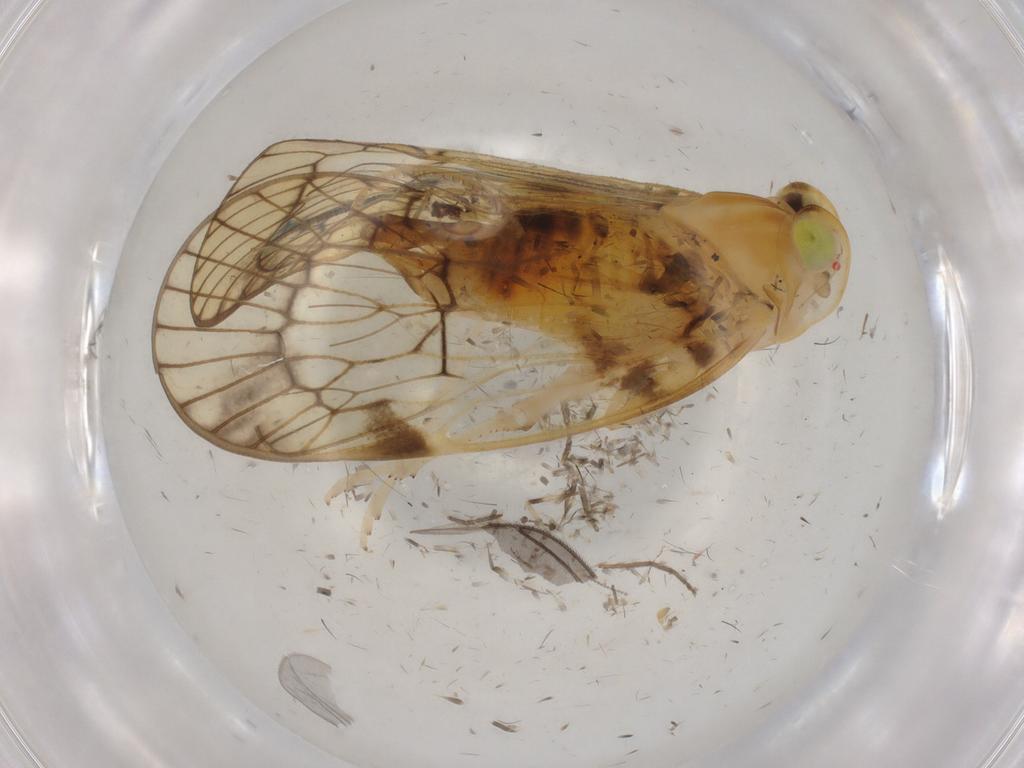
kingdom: Animalia
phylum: Arthropoda
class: Insecta
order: Hemiptera
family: Cixiidae
